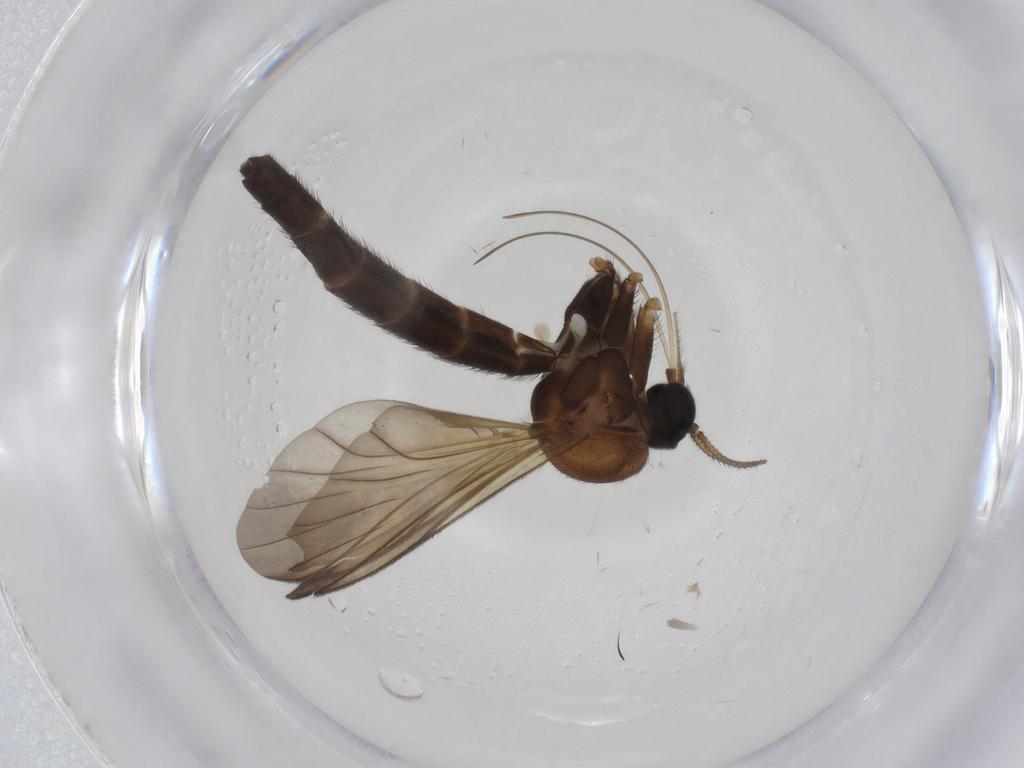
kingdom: Animalia
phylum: Arthropoda
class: Insecta
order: Diptera
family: Keroplatidae
